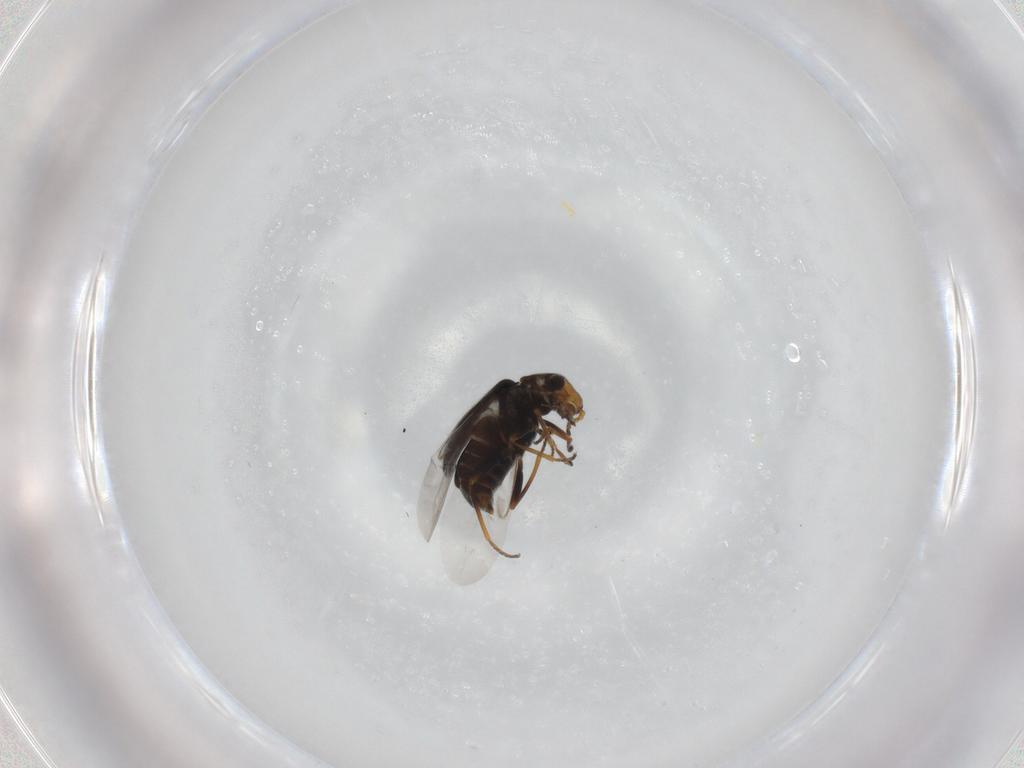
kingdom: Animalia
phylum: Arthropoda
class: Insecta
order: Coleoptera
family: Melyridae
